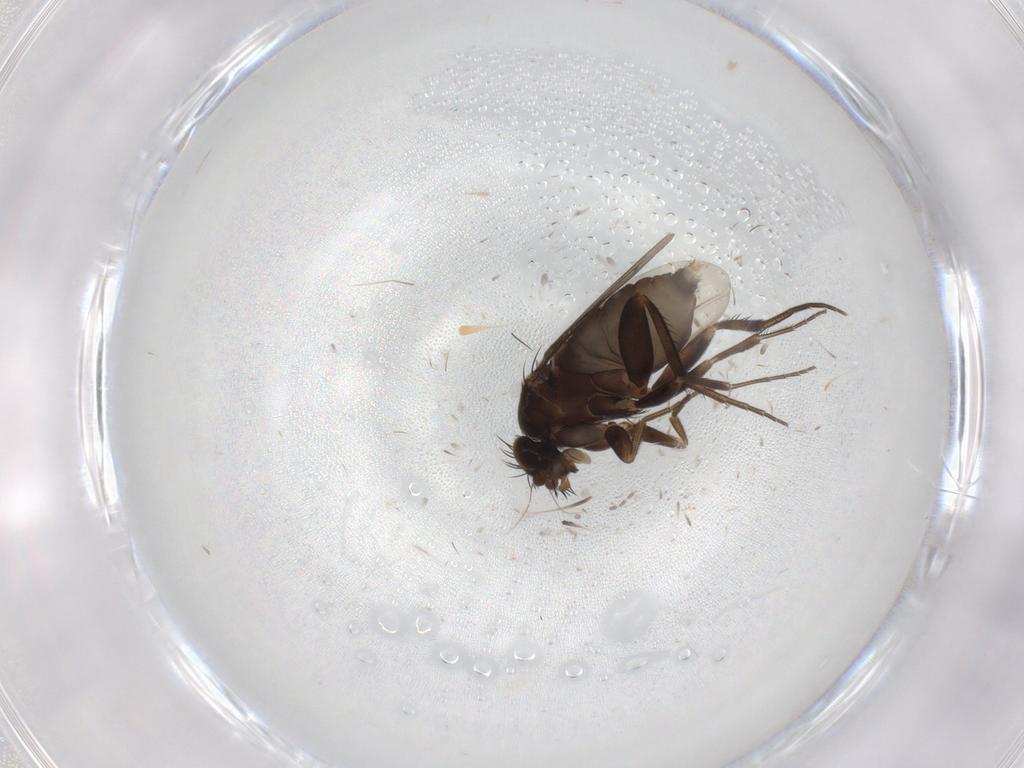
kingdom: Animalia
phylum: Arthropoda
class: Insecta
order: Diptera
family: Phoridae
